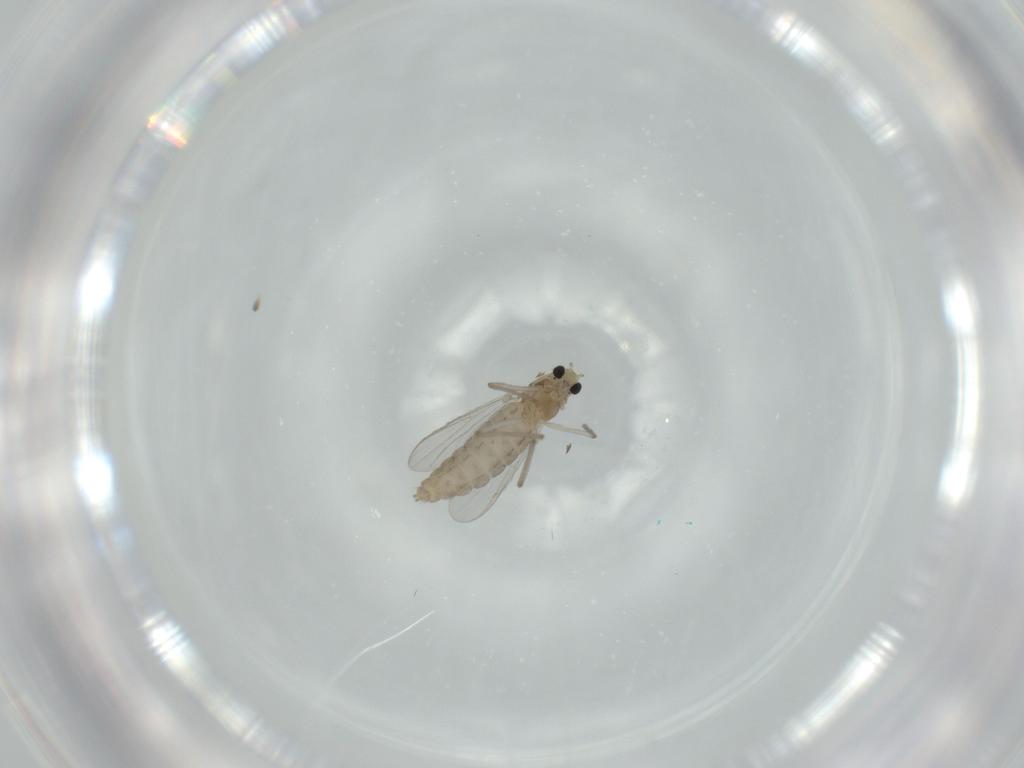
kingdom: Animalia
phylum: Arthropoda
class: Insecta
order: Diptera
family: Chironomidae
